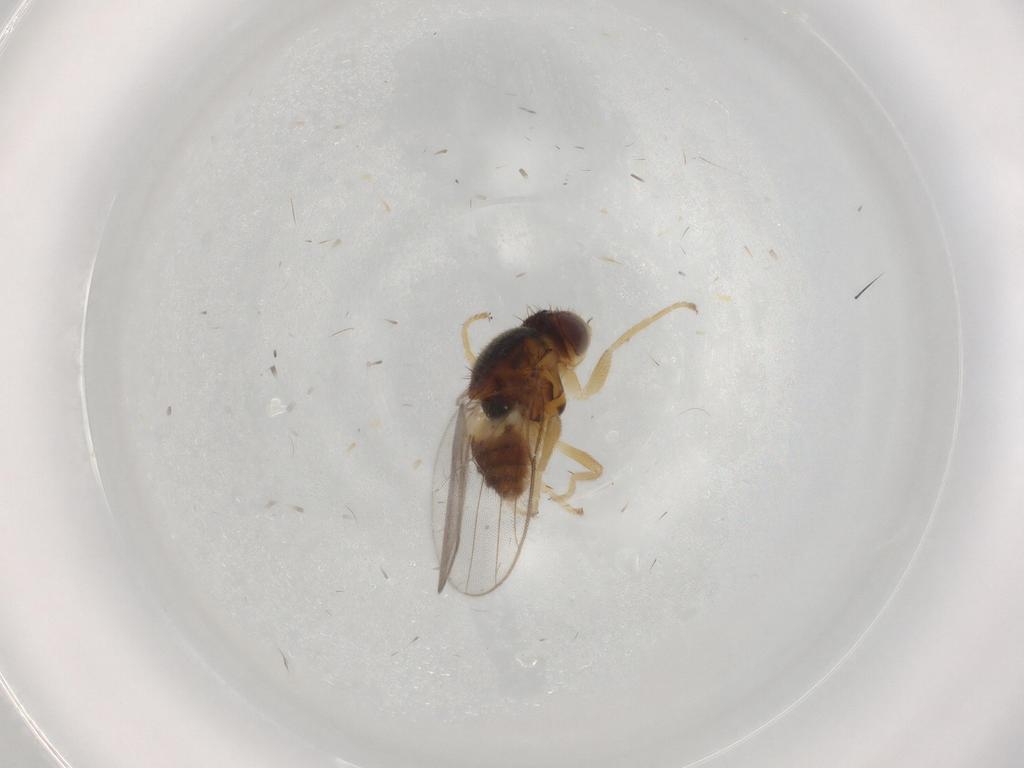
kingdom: Animalia
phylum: Arthropoda
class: Insecta
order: Diptera
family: Chloropidae
